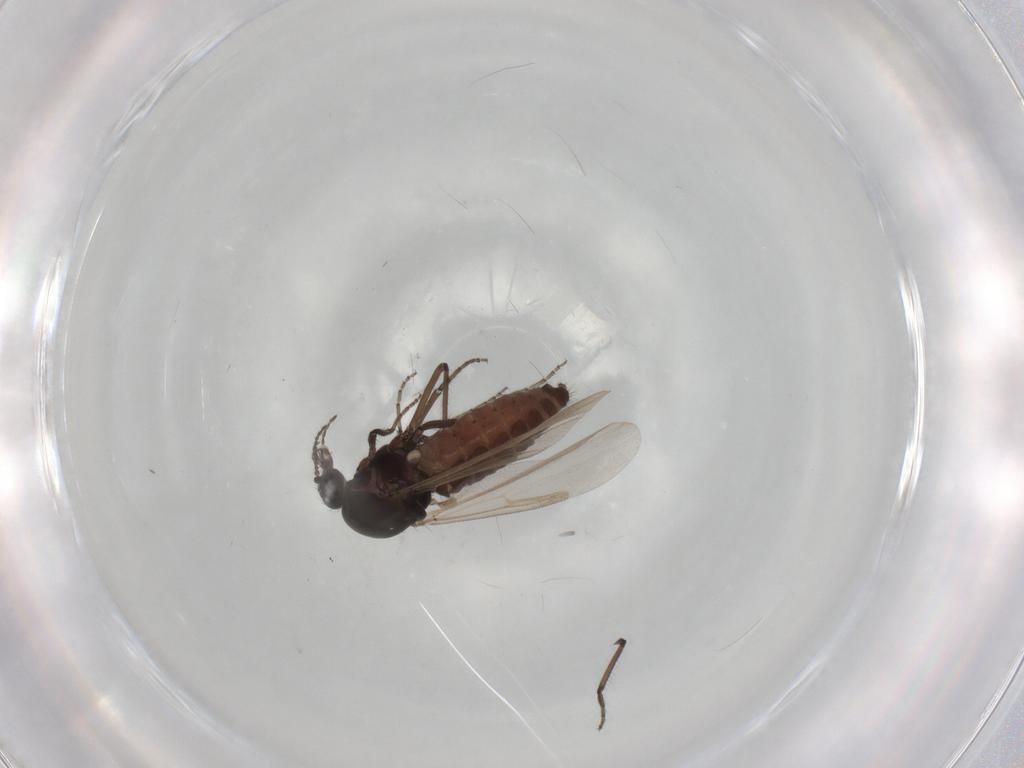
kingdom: Animalia
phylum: Arthropoda
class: Insecta
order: Diptera
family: Ceratopogonidae
